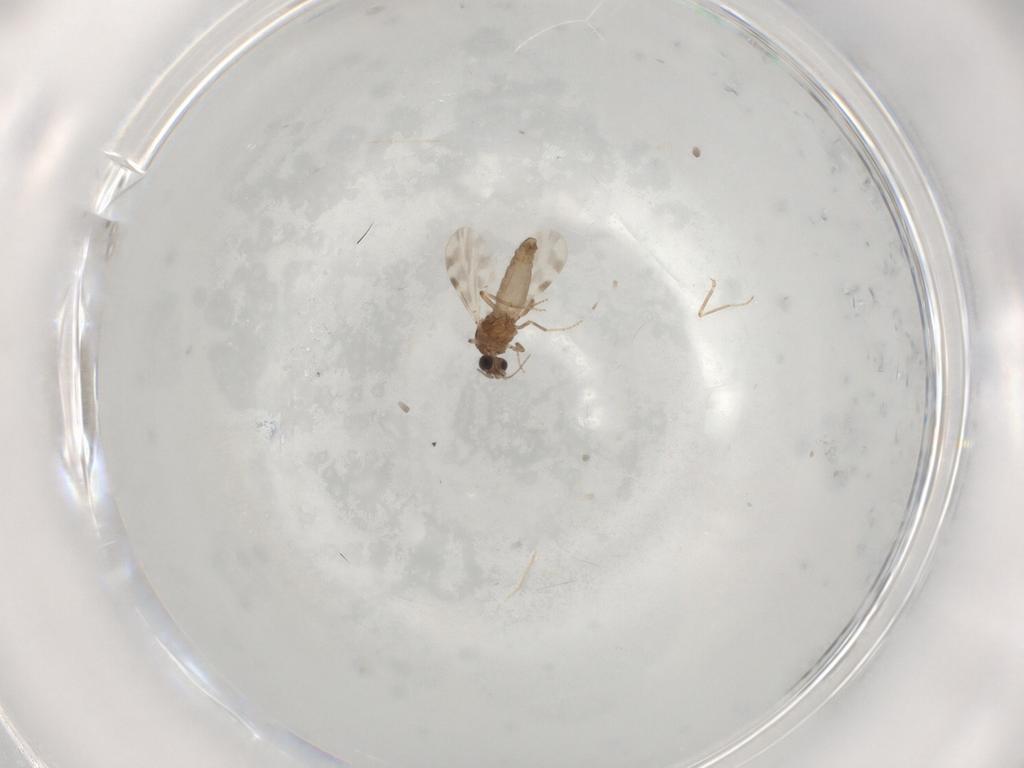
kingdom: Animalia
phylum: Arthropoda
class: Insecta
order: Diptera
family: Ceratopogonidae
